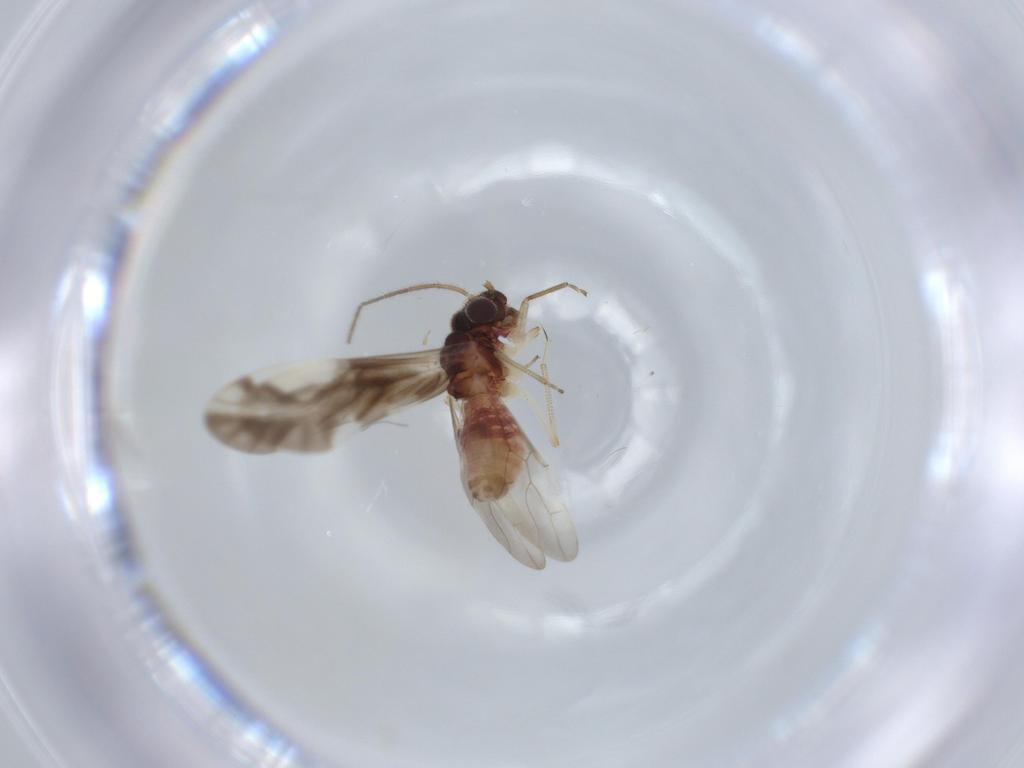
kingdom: Animalia
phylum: Arthropoda
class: Insecta
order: Psocodea
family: Caeciliusidae
